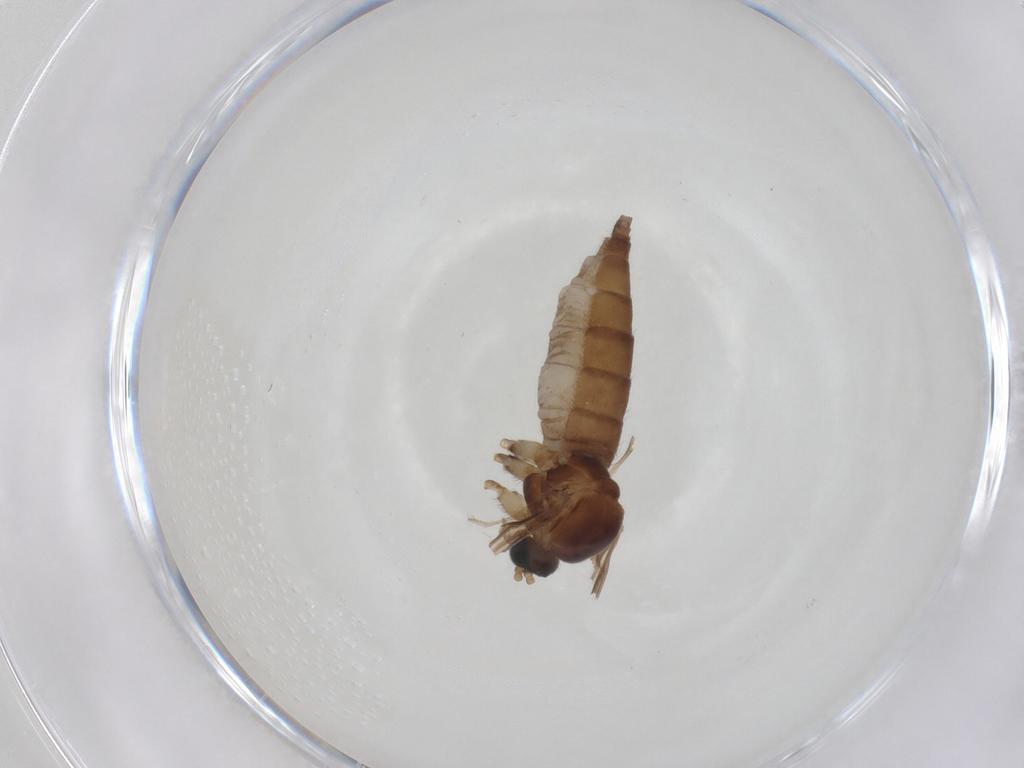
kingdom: Animalia
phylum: Arthropoda
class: Insecta
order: Diptera
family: Sciaridae
